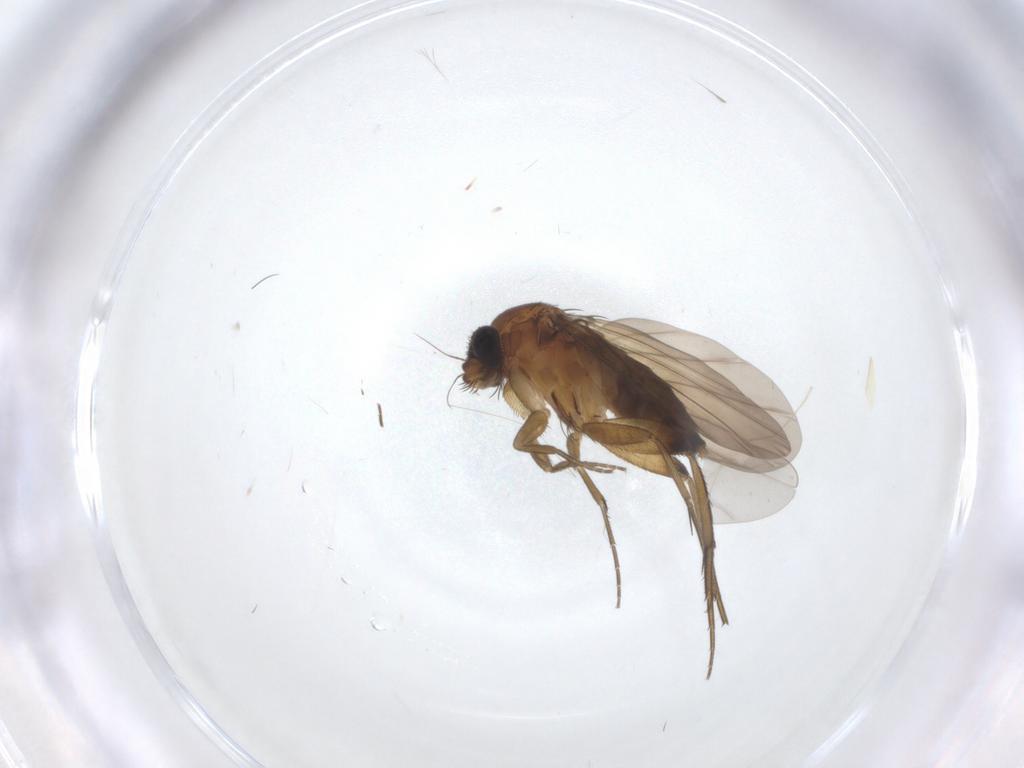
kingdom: Animalia
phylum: Arthropoda
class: Insecta
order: Diptera
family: Phoridae
